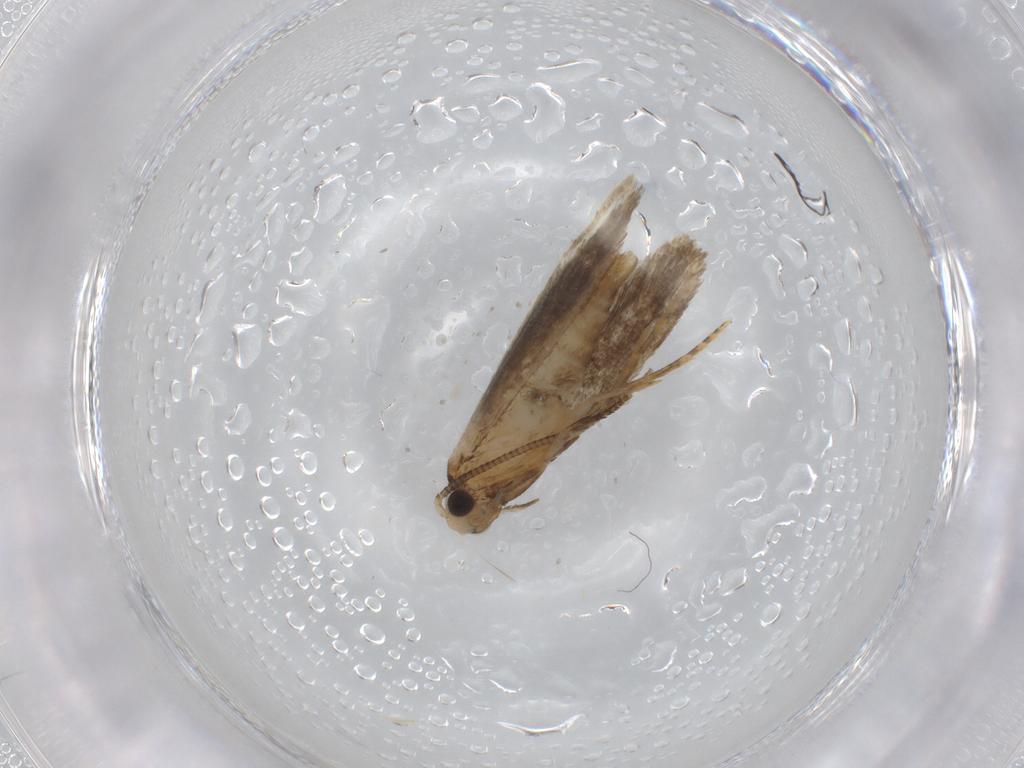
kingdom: Animalia
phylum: Arthropoda
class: Insecta
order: Lepidoptera
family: Tineidae
